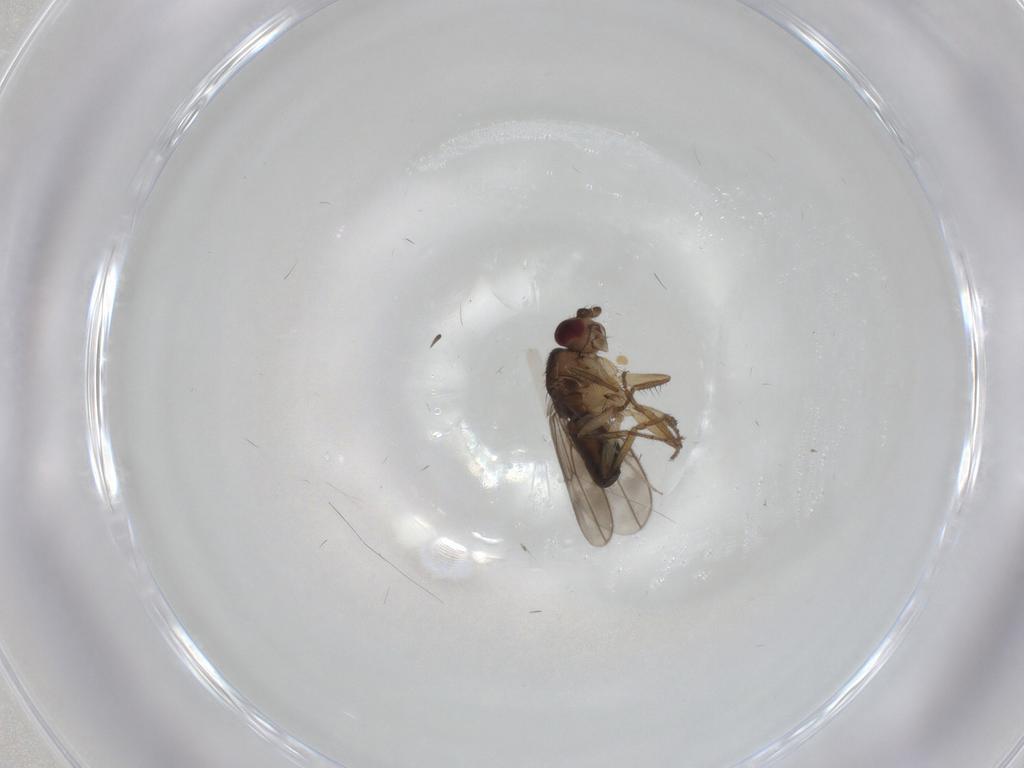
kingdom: Animalia
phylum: Arthropoda
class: Insecta
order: Diptera
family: Sphaeroceridae
